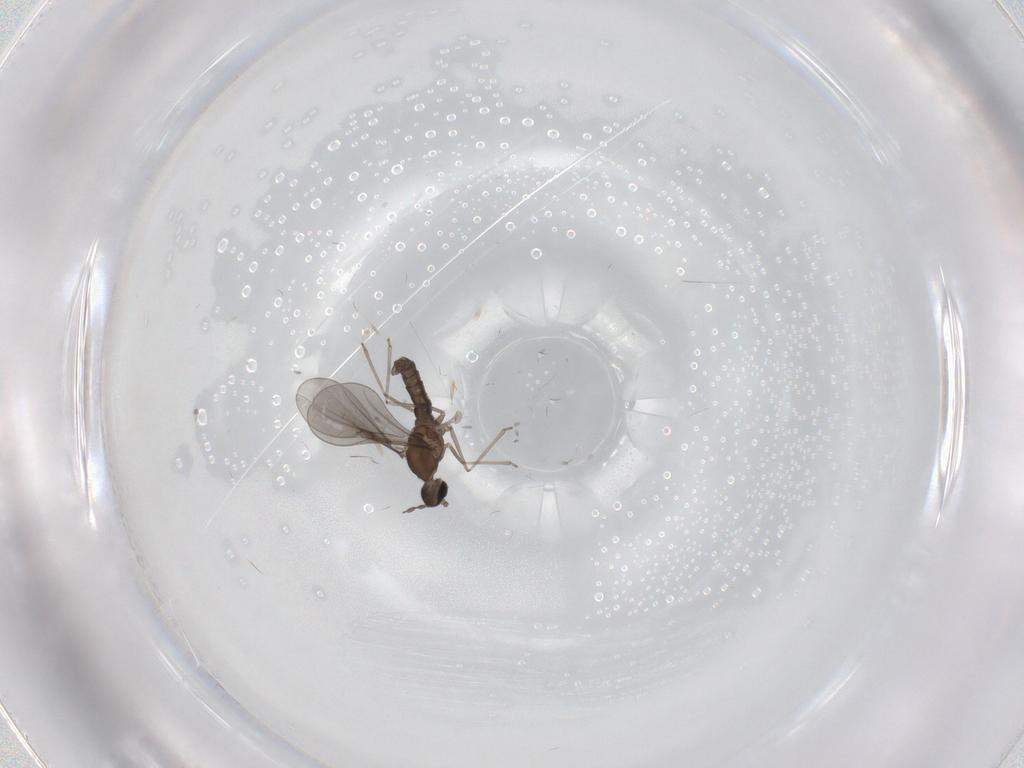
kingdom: Animalia
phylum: Arthropoda
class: Insecta
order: Diptera
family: Cecidomyiidae
